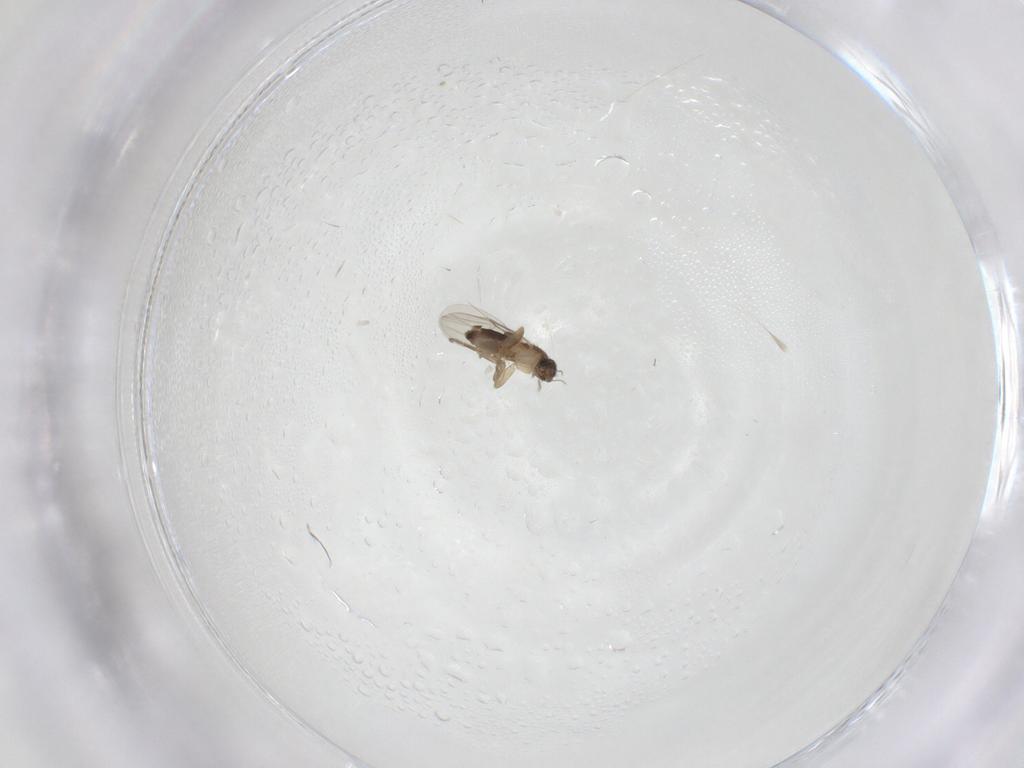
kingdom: Animalia
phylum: Arthropoda
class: Insecta
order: Diptera
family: Phoridae
